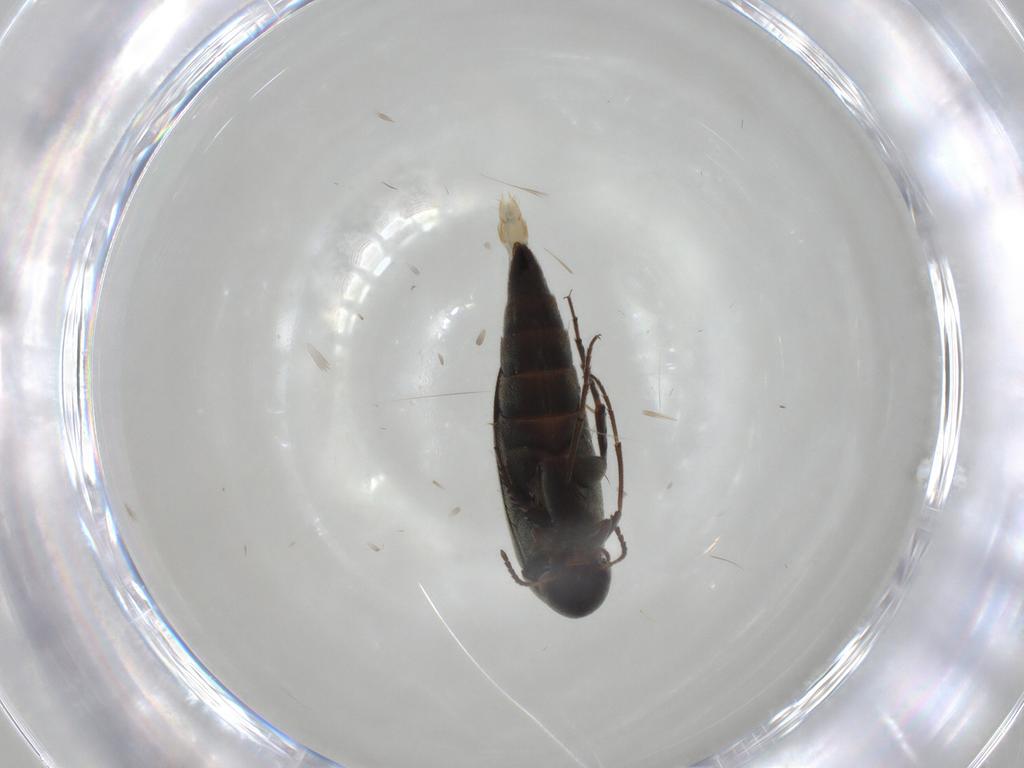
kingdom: Animalia
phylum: Arthropoda
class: Insecta
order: Coleoptera
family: Mordellidae
